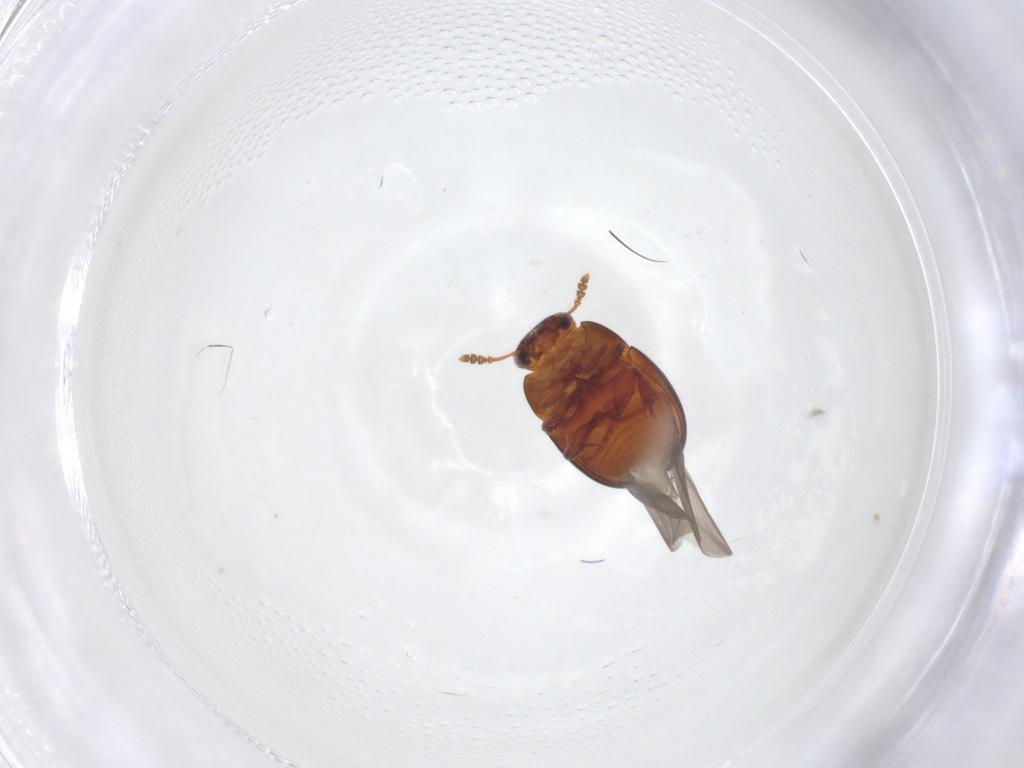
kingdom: Animalia
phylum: Arthropoda
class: Insecta
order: Coleoptera
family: Leiodidae
